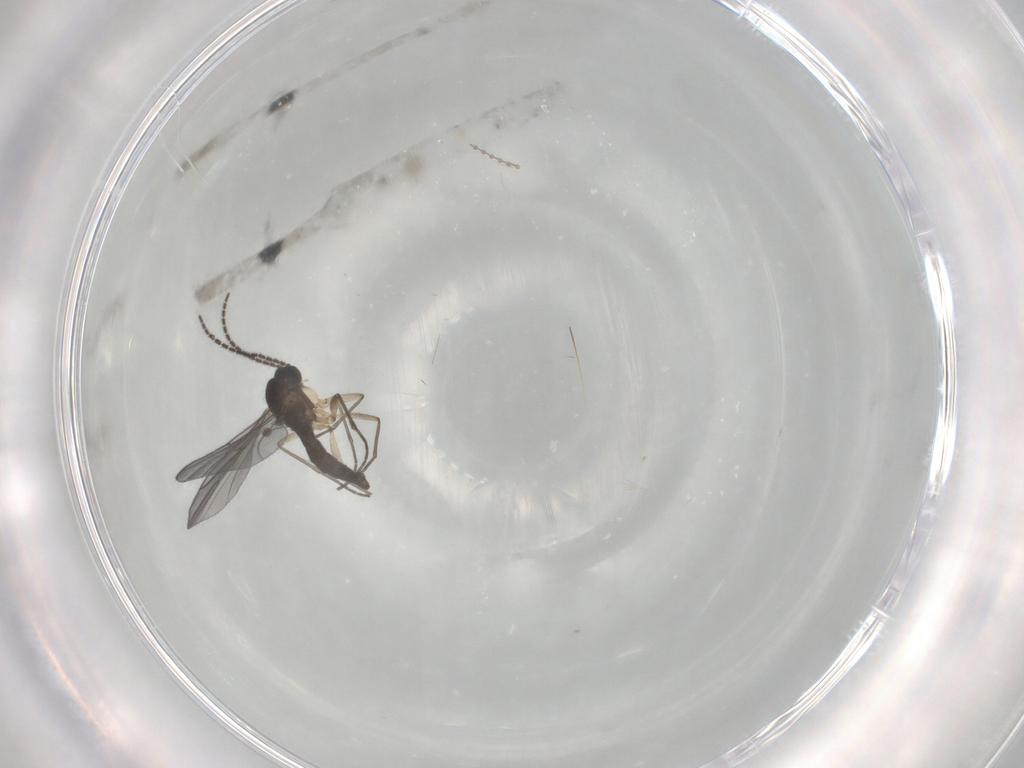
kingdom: Animalia
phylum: Arthropoda
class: Insecta
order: Diptera
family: Sciaridae
